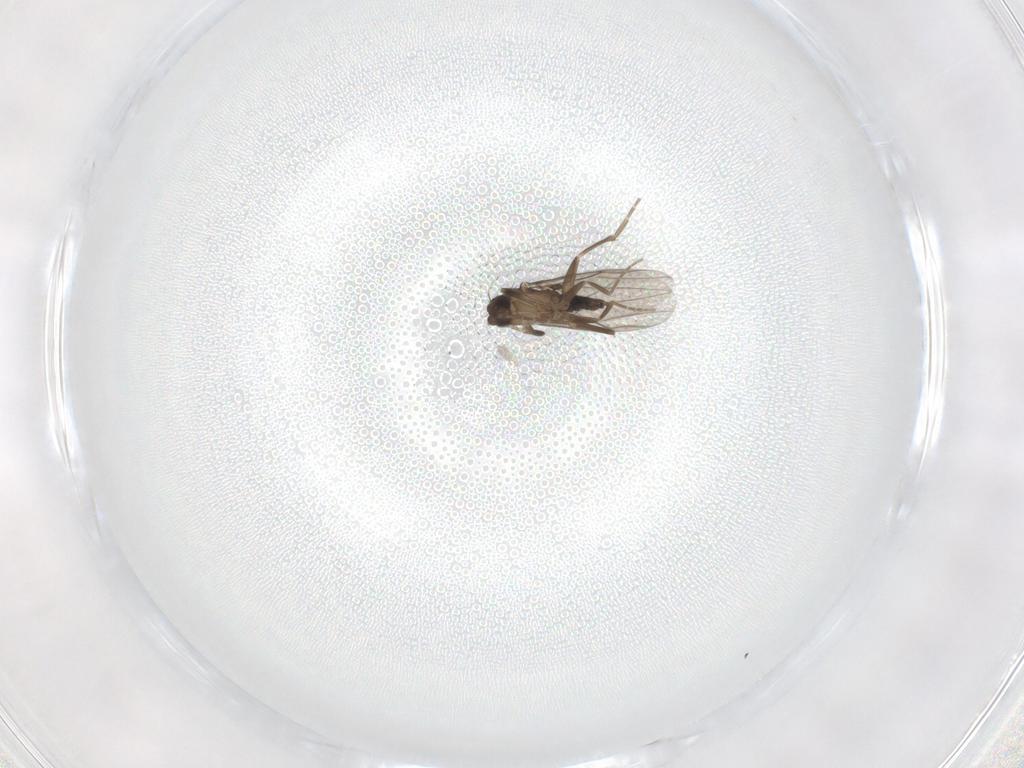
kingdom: Animalia
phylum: Arthropoda
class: Insecta
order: Diptera
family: Phoridae
